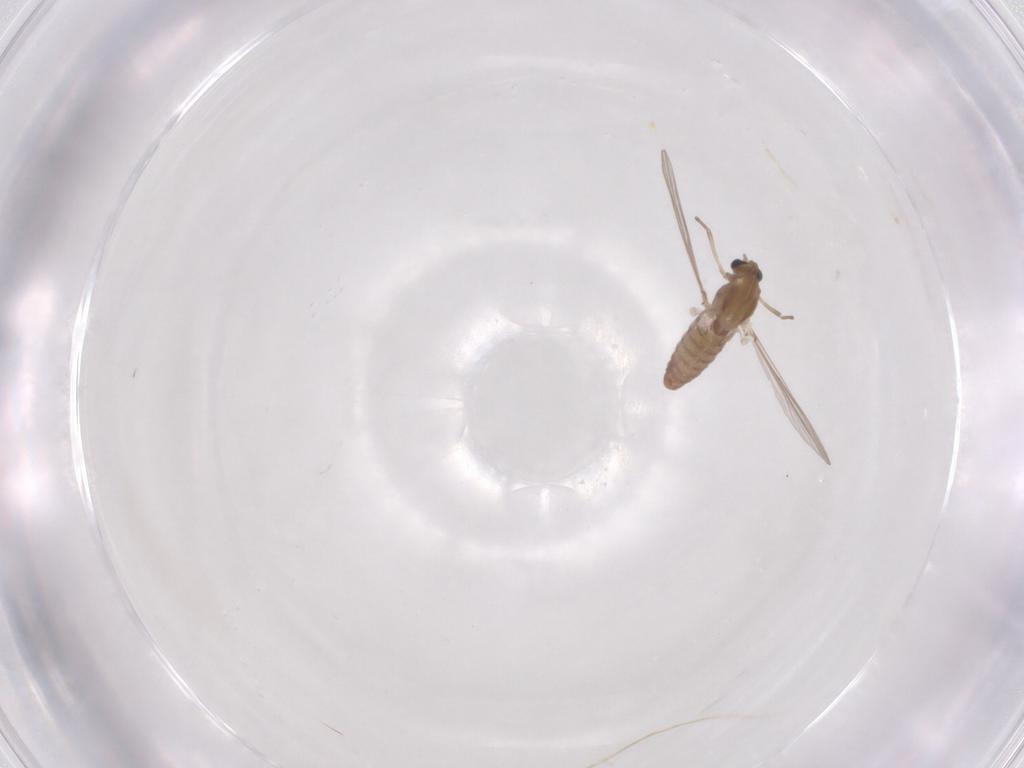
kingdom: Animalia
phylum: Arthropoda
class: Insecta
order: Diptera
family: Chironomidae
